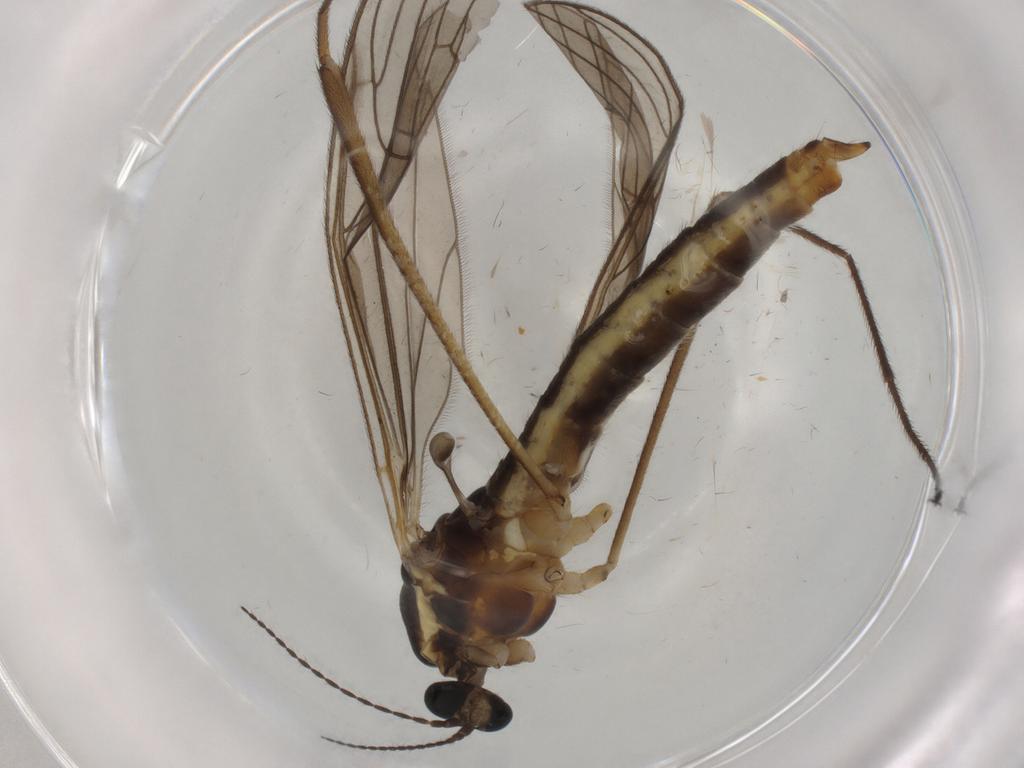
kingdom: Animalia
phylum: Arthropoda
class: Insecta
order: Diptera
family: Limoniidae
